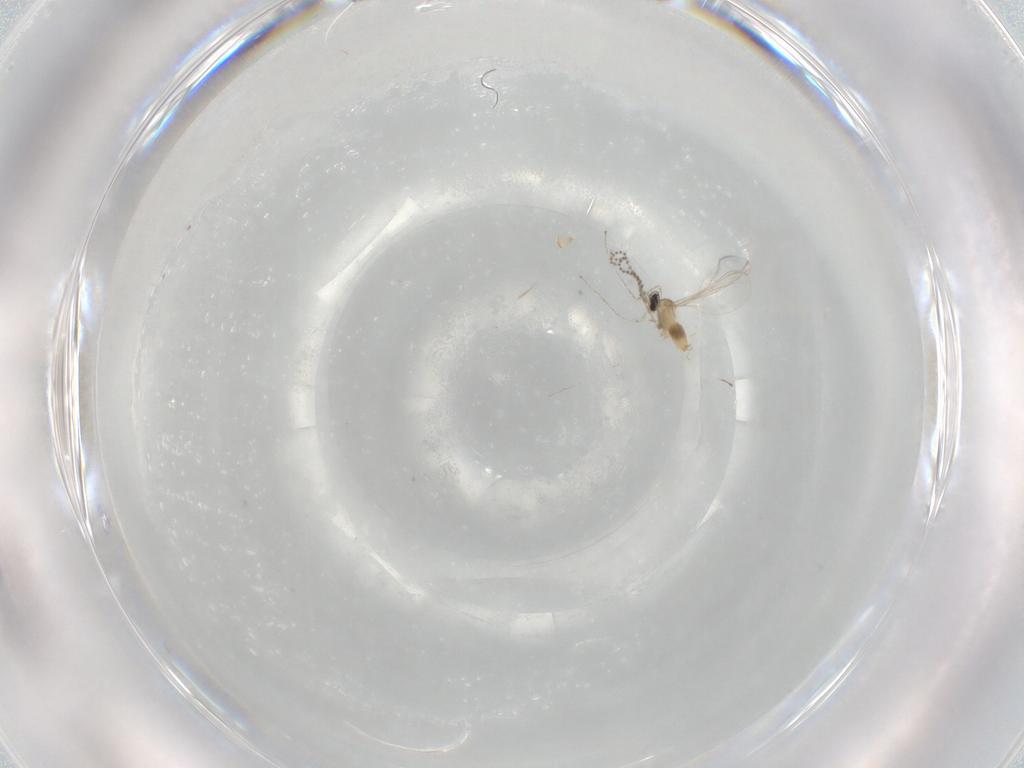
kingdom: Animalia
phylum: Arthropoda
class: Insecta
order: Diptera
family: Cecidomyiidae
